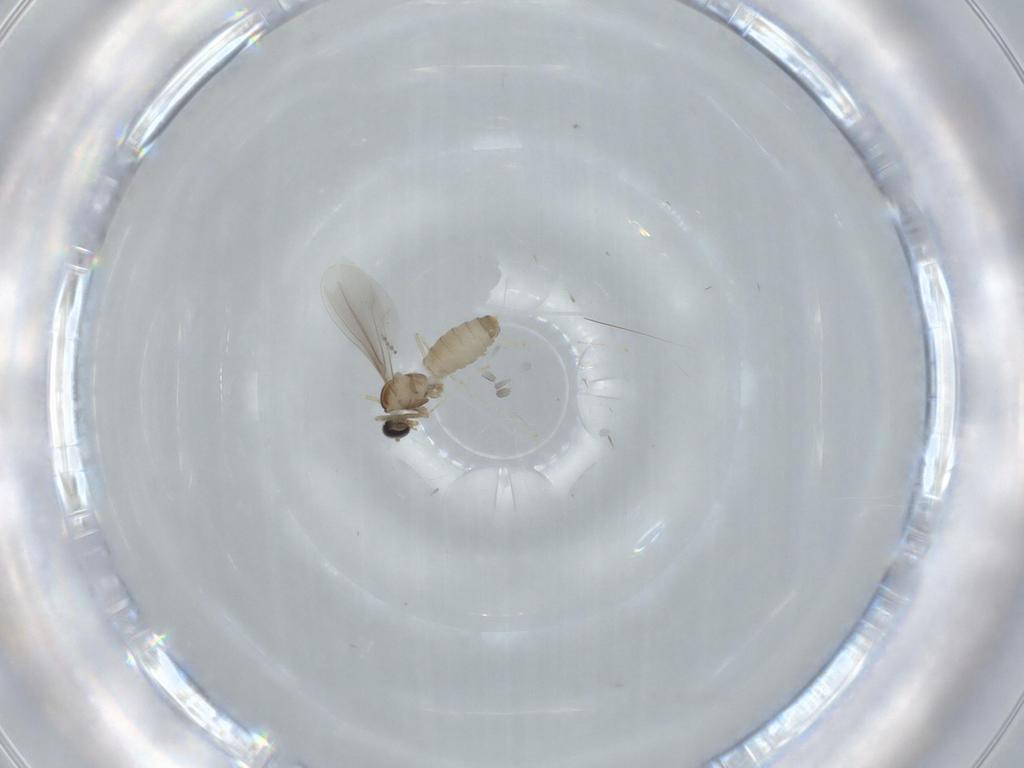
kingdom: Animalia
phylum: Arthropoda
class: Insecta
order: Diptera
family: Cecidomyiidae
